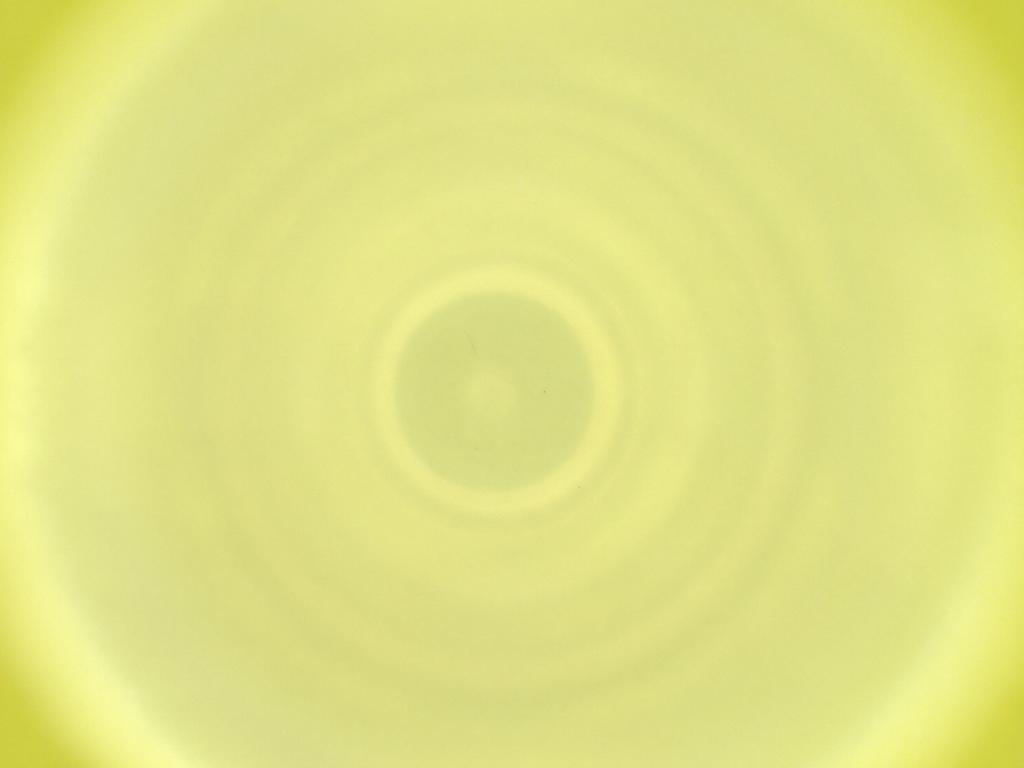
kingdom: Animalia
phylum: Arthropoda
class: Insecta
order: Diptera
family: Cecidomyiidae
